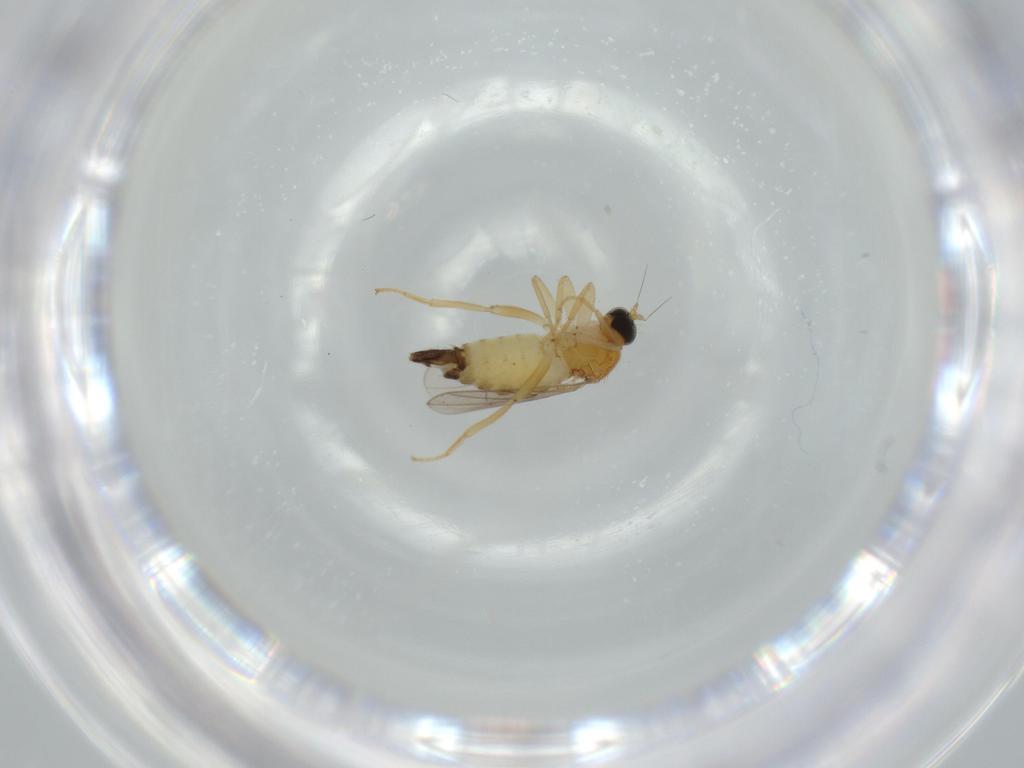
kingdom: Animalia
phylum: Arthropoda
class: Insecta
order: Diptera
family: Hybotidae
